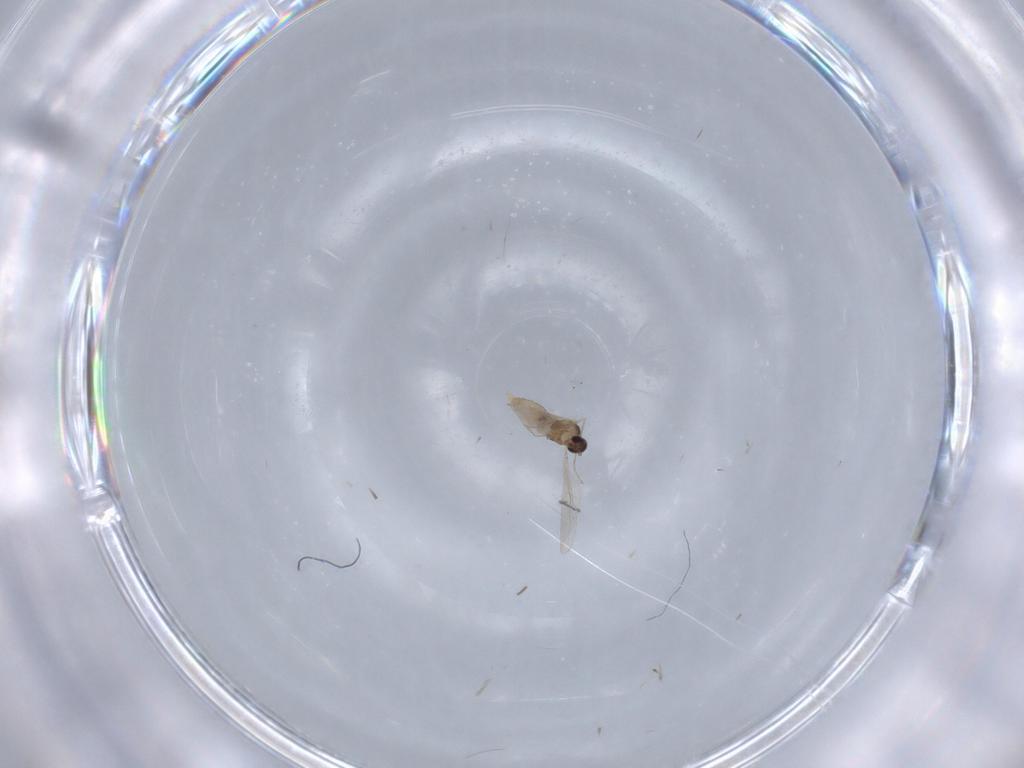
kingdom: Animalia
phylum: Arthropoda
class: Insecta
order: Diptera
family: Cecidomyiidae
